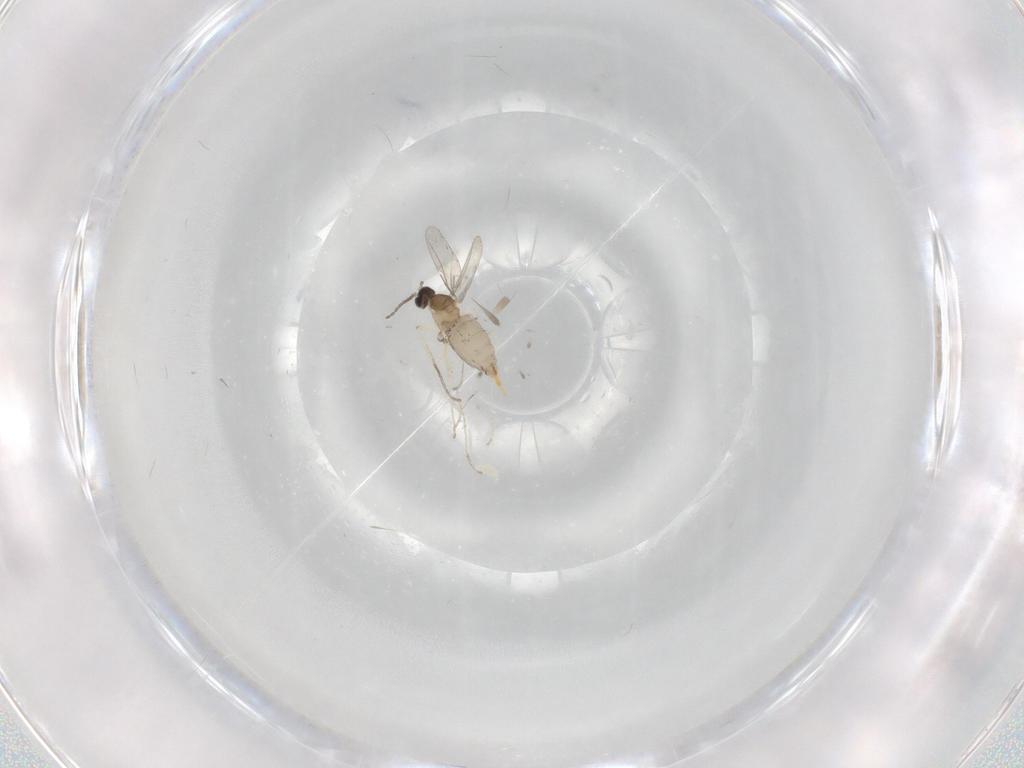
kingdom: Animalia
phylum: Arthropoda
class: Insecta
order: Diptera
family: Cecidomyiidae
